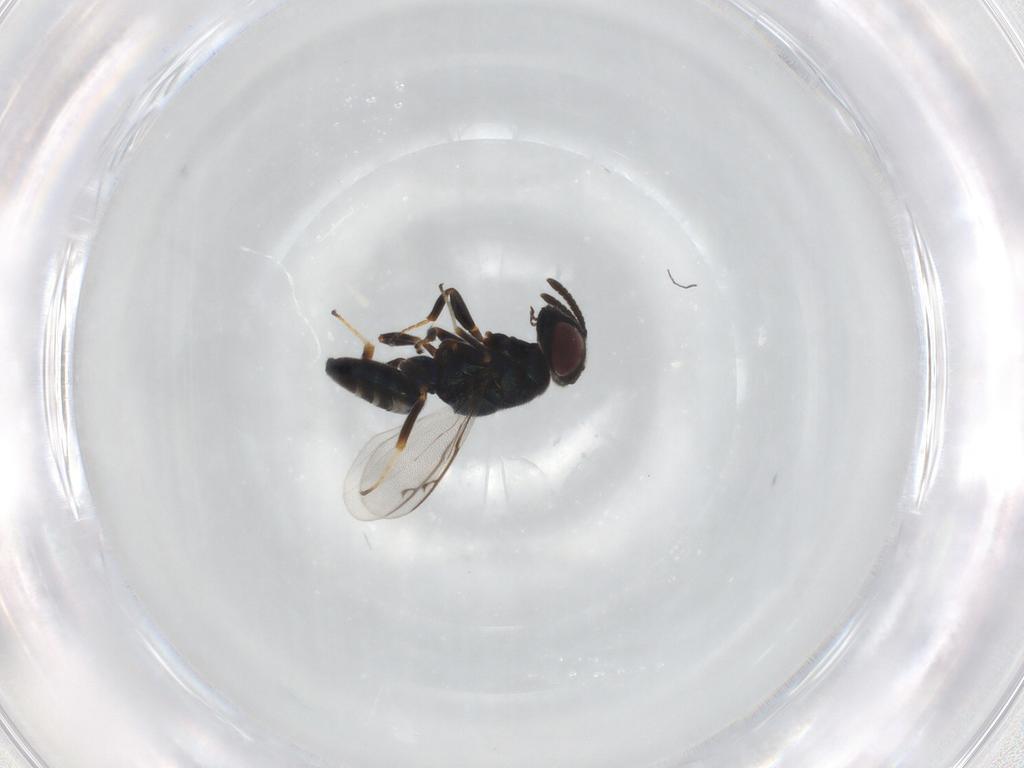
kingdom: Animalia
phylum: Arthropoda
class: Insecta
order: Hymenoptera
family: Pteromalidae
